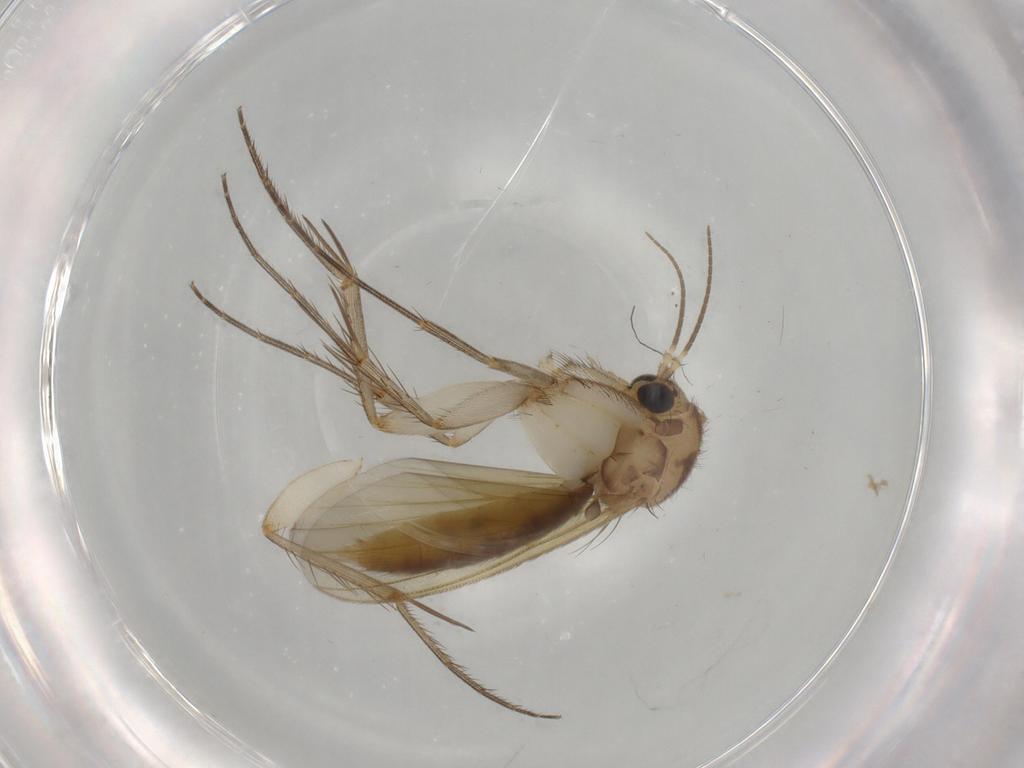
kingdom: Animalia
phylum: Arthropoda
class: Insecta
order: Diptera
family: Mycetophilidae
